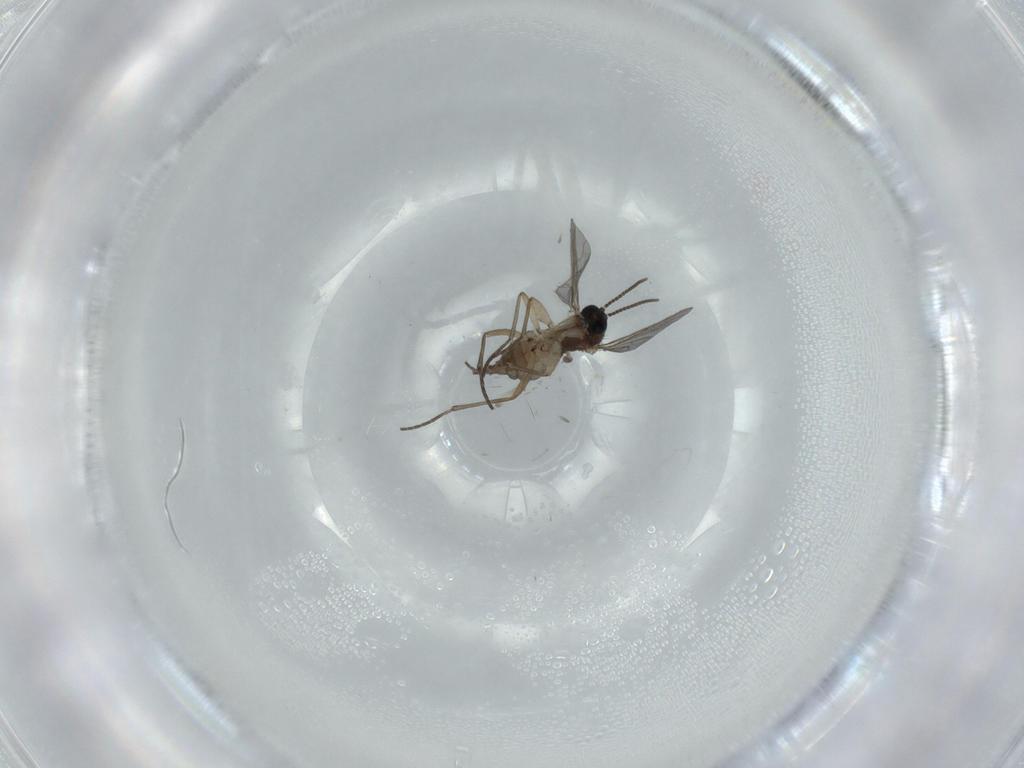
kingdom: Animalia
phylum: Arthropoda
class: Insecta
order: Diptera
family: Sciaridae
